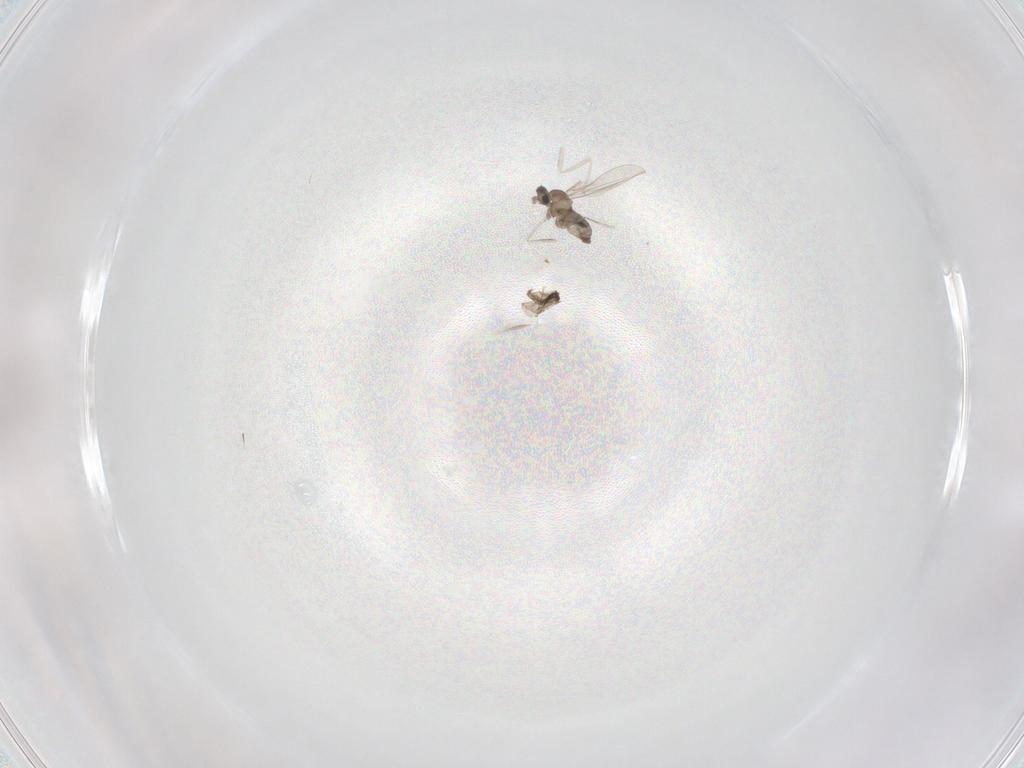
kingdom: Animalia
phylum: Arthropoda
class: Insecta
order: Diptera
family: Cecidomyiidae
